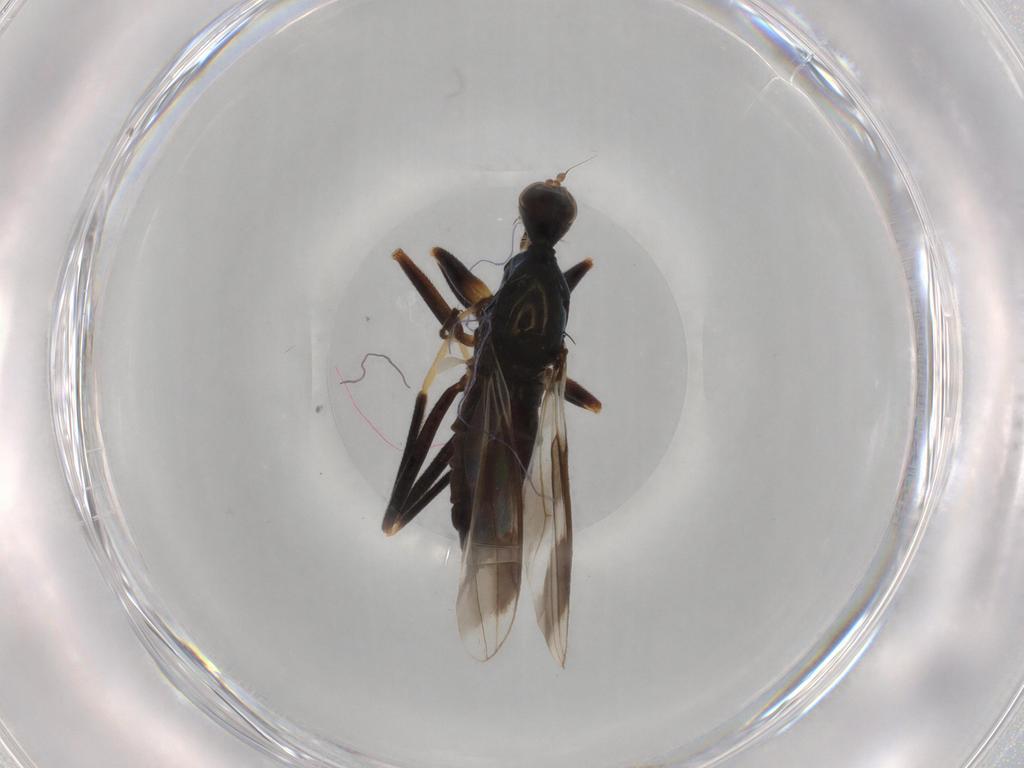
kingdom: Animalia
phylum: Arthropoda
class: Insecta
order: Diptera
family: Hybotidae
